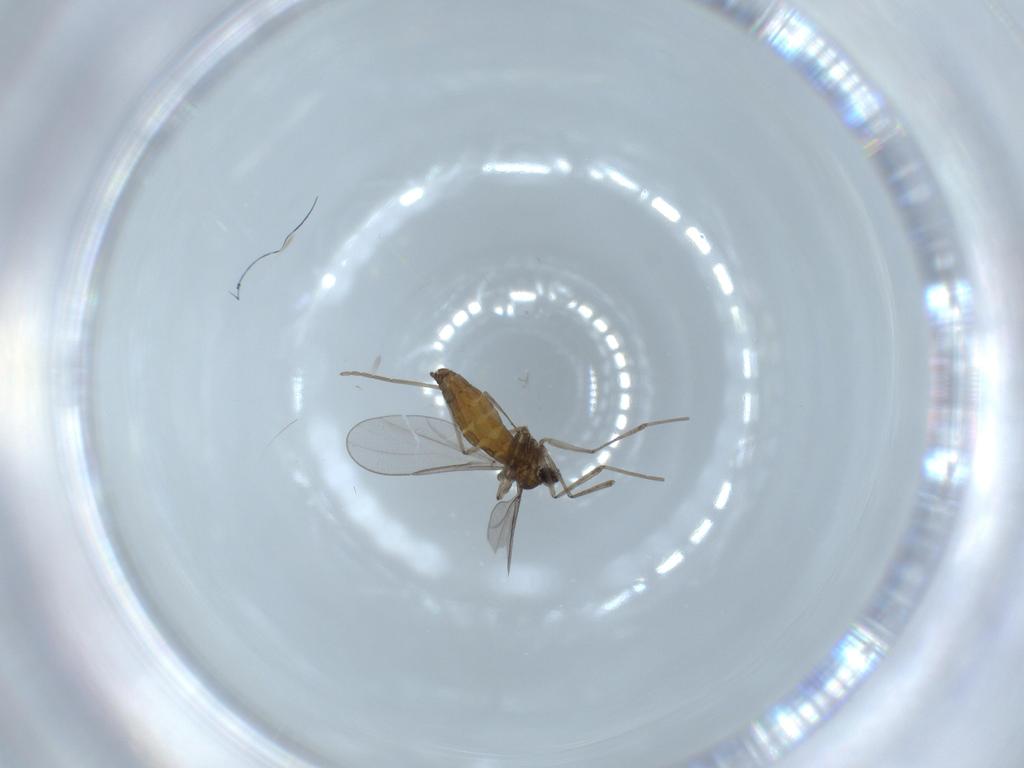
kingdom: Animalia
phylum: Arthropoda
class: Insecta
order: Diptera
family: Cecidomyiidae
